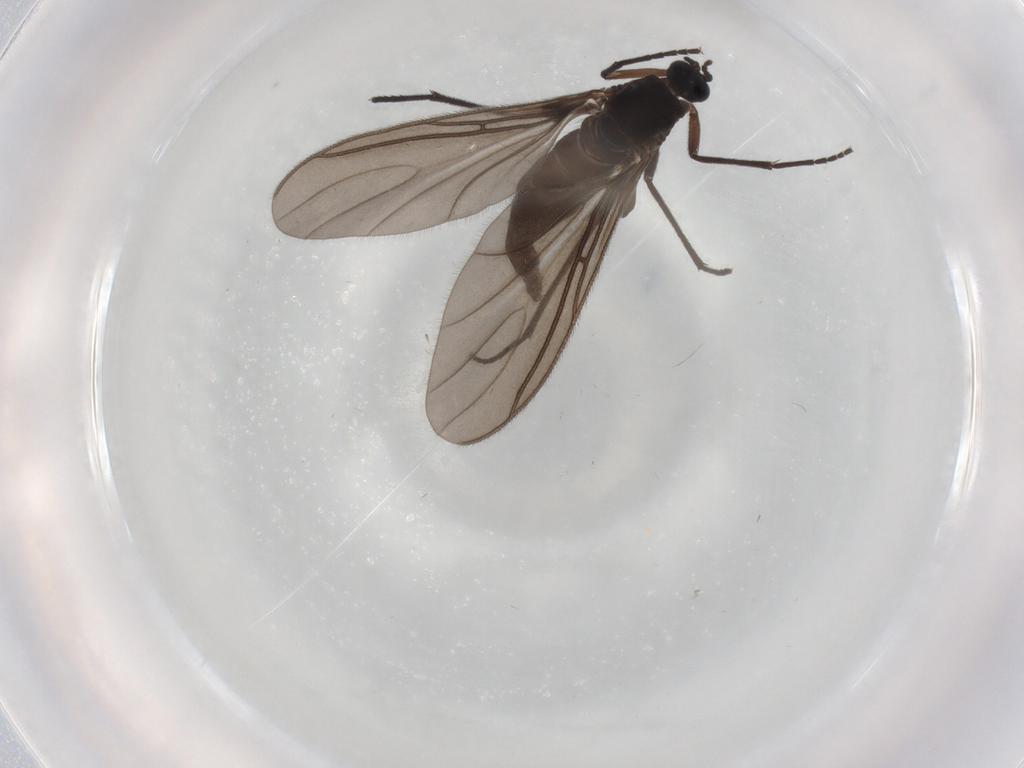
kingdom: Animalia
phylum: Arthropoda
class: Insecta
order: Diptera
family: Sciaridae
